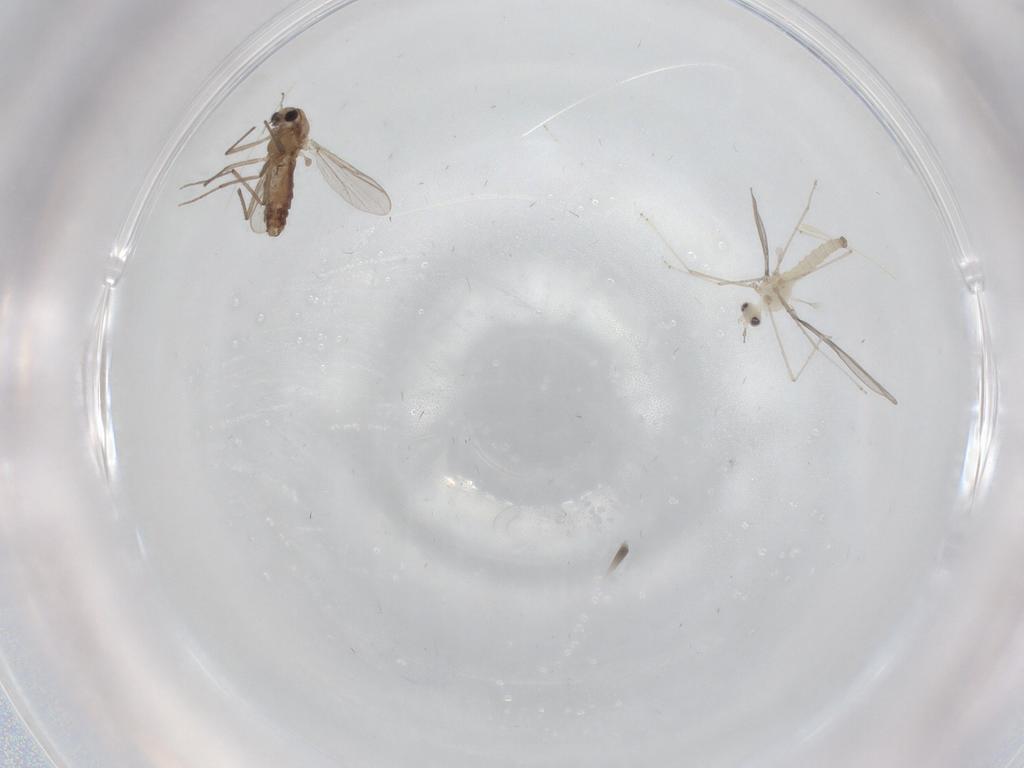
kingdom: Animalia
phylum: Arthropoda
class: Insecta
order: Diptera
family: Cecidomyiidae
